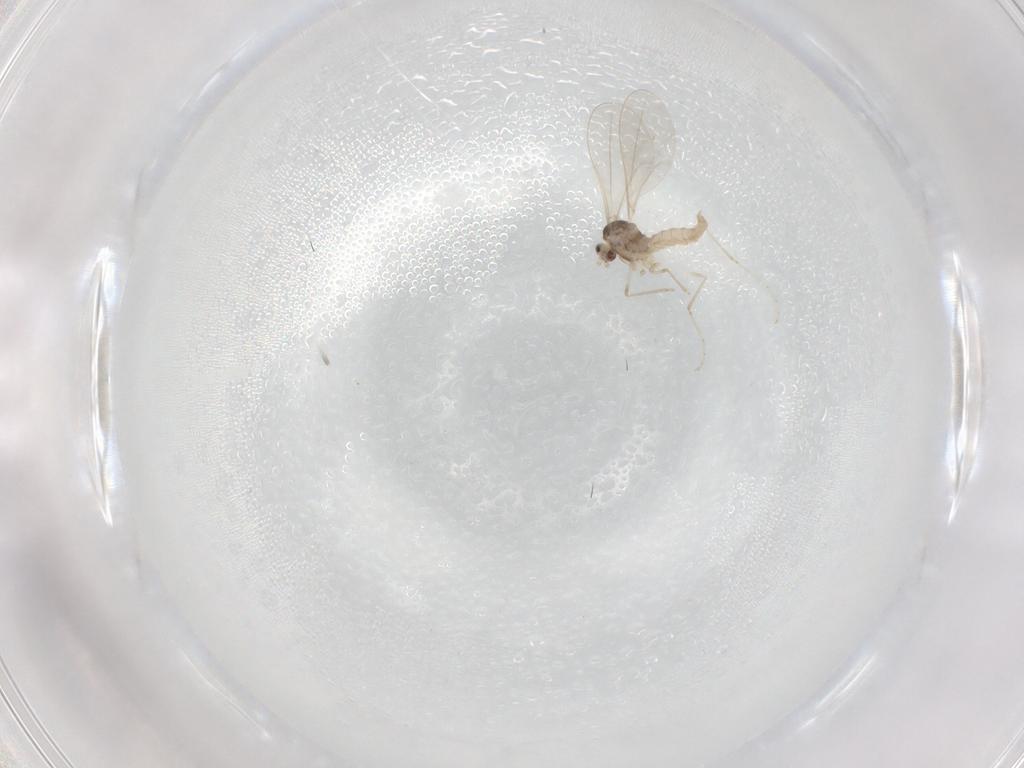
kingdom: Animalia
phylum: Arthropoda
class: Insecta
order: Diptera
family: Cecidomyiidae
